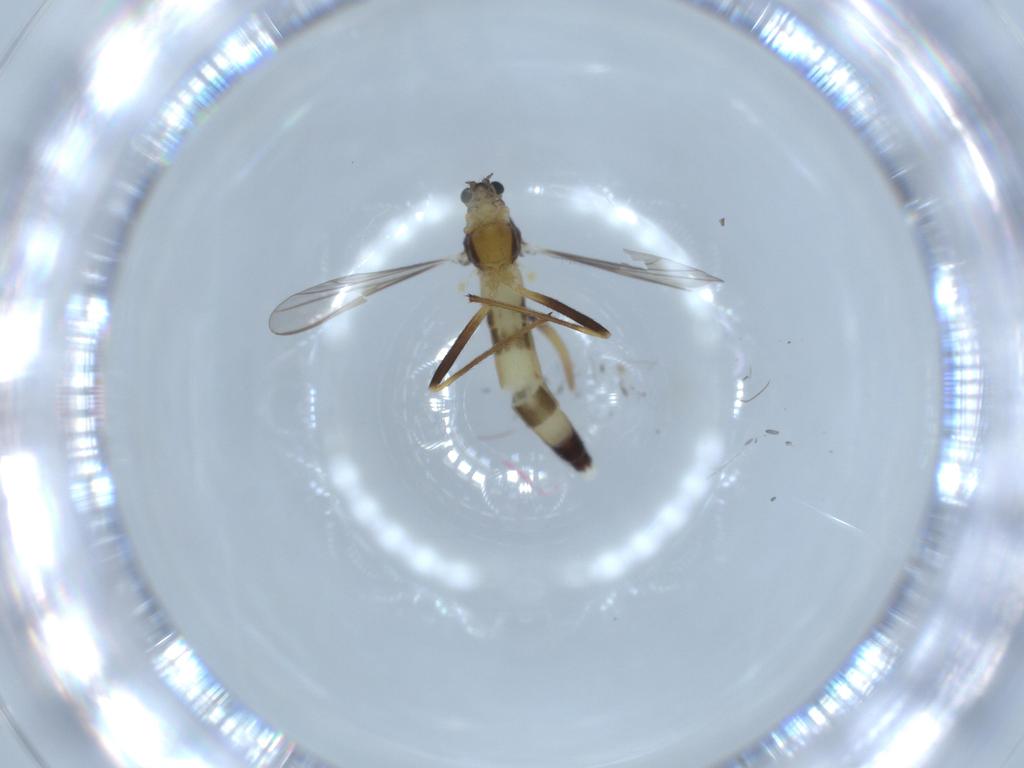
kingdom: Animalia
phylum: Arthropoda
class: Insecta
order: Diptera
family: Chironomidae
